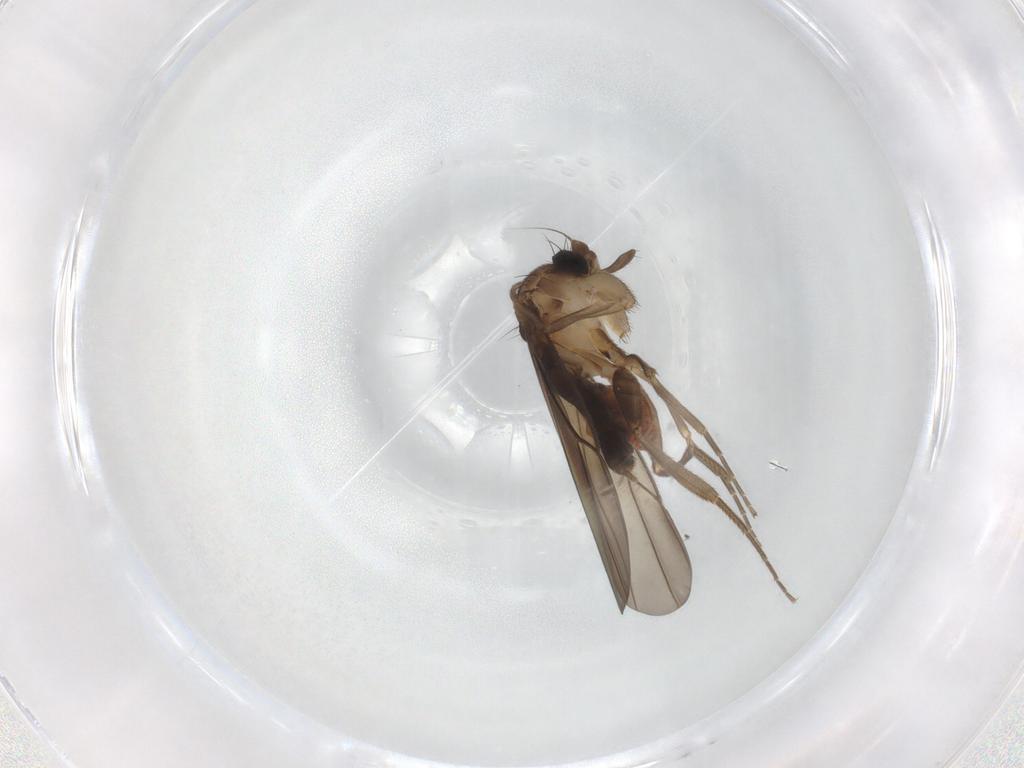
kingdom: Animalia
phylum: Arthropoda
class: Insecta
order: Diptera
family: Phoridae
